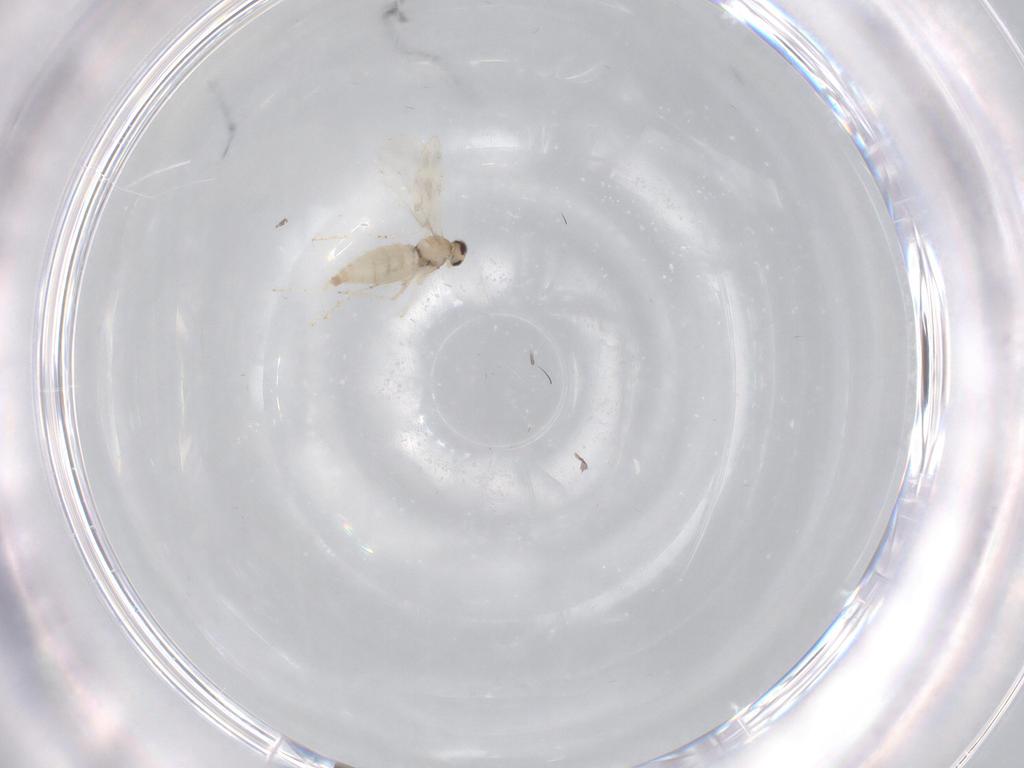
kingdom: Animalia
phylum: Arthropoda
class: Insecta
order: Diptera
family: Cecidomyiidae
